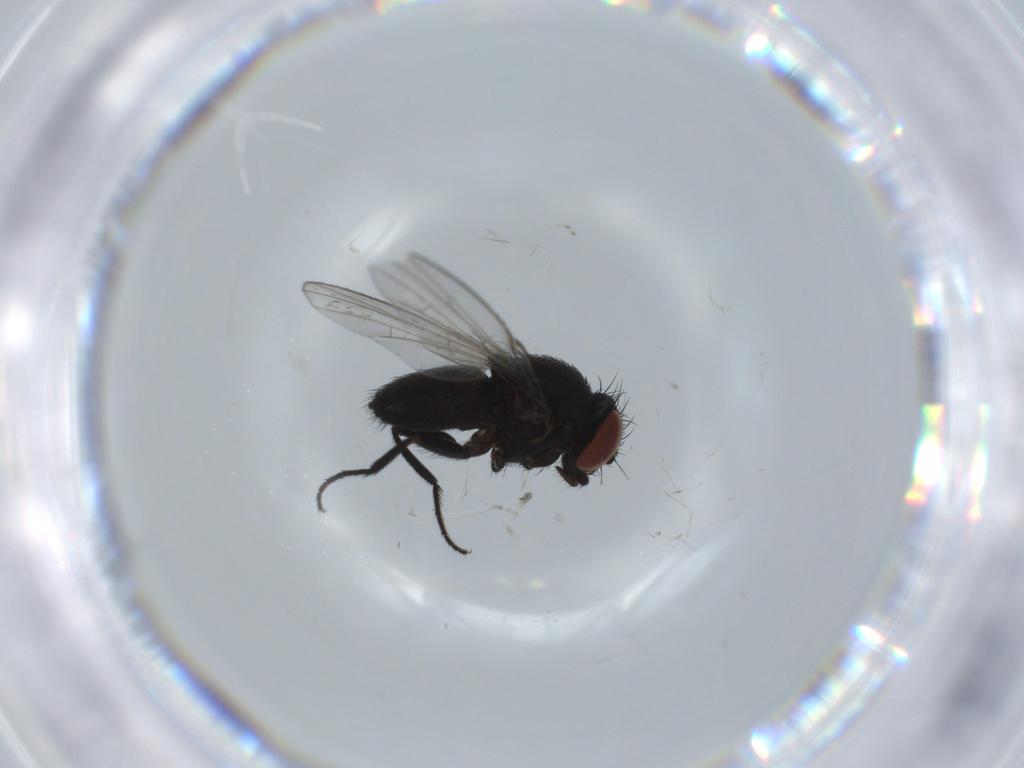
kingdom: Animalia
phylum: Arthropoda
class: Insecta
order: Diptera
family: Milichiidae
